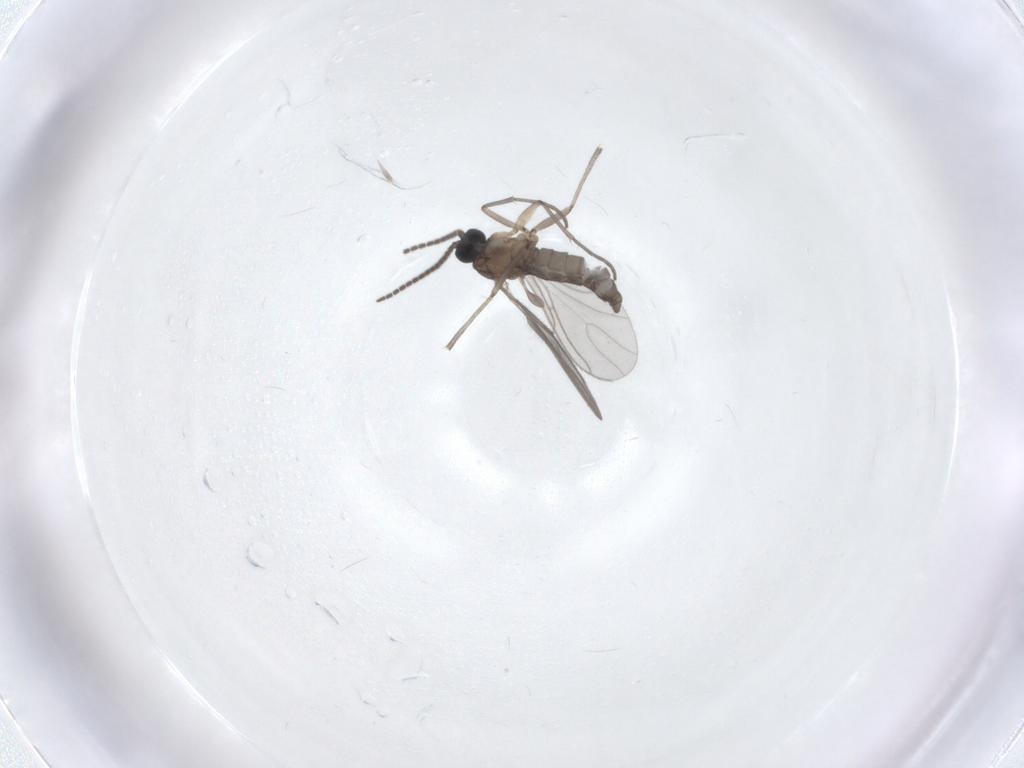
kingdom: Animalia
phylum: Arthropoda
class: Insecta
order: Diptera
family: Sciaridae
